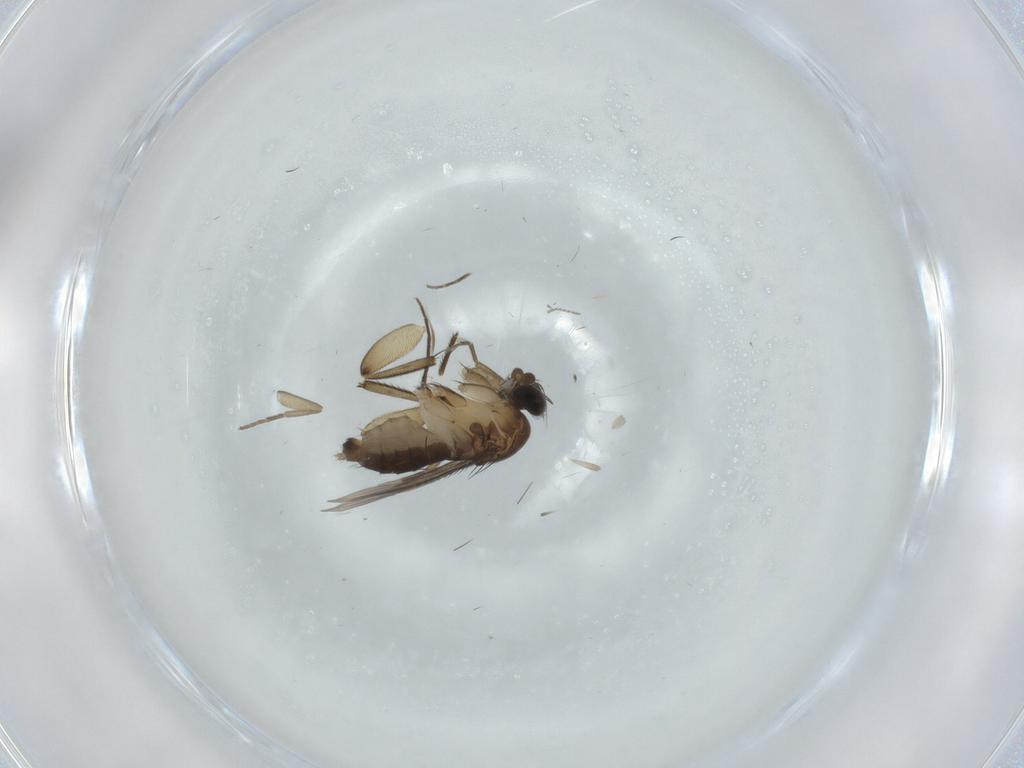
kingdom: Animalia
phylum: Arthropoda
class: Insecta
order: Diptera
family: Phoridae
